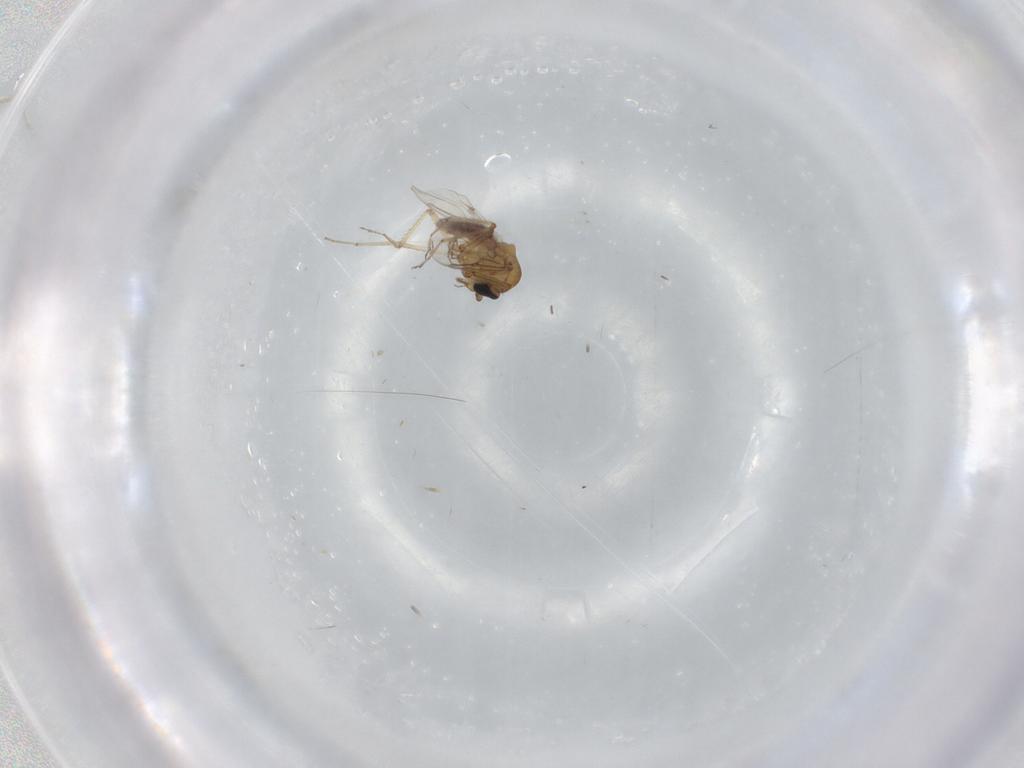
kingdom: Animalia
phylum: Arthropoda
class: Insecta
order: Diptera
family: Sciaridae
